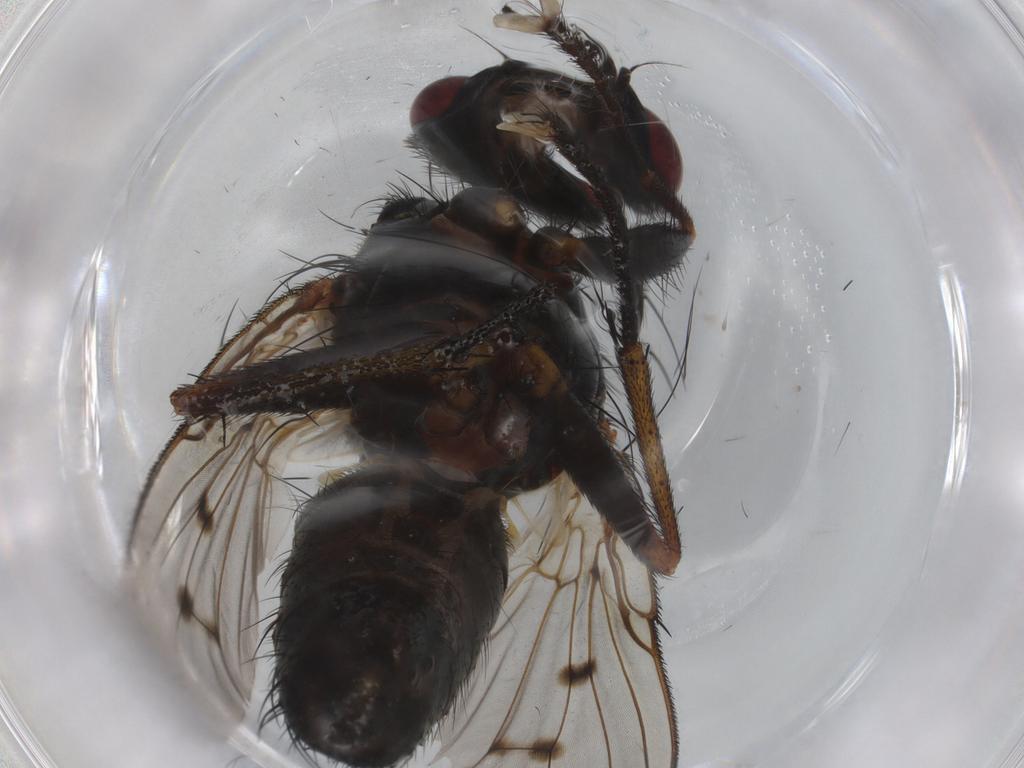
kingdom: Animalia
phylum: Arthropoda
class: Insecta
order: Diptera
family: Muscidae
